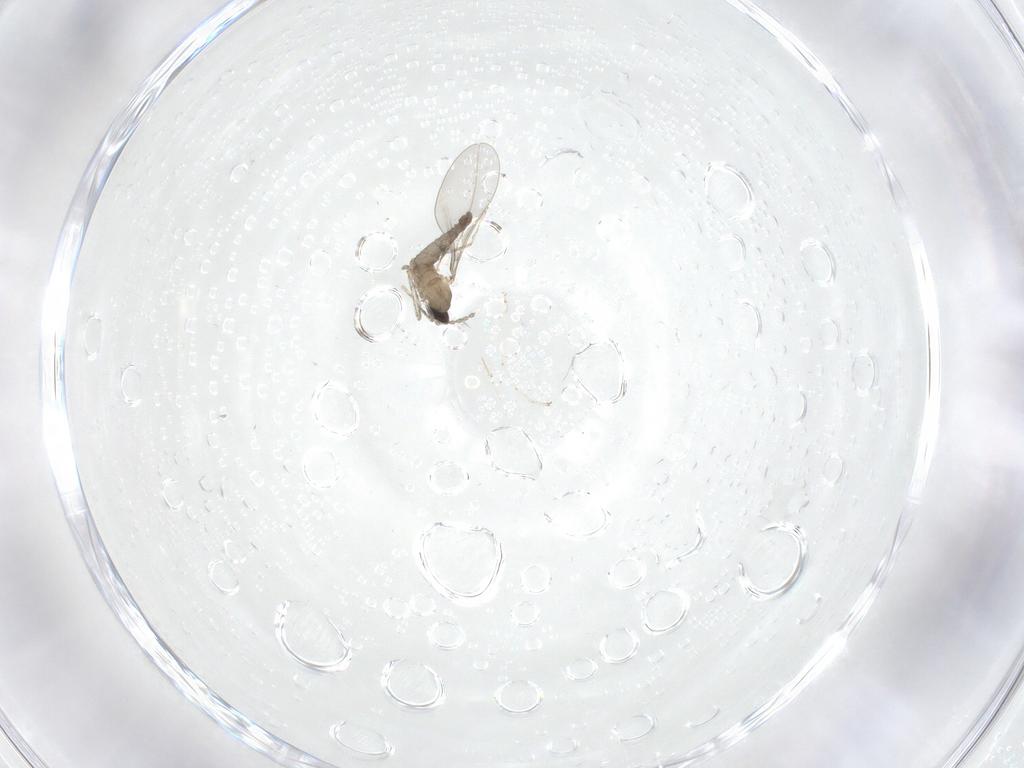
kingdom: Animalia
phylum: Arthropoda
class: Insecta
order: Diptera
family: Cecidomyiidae
